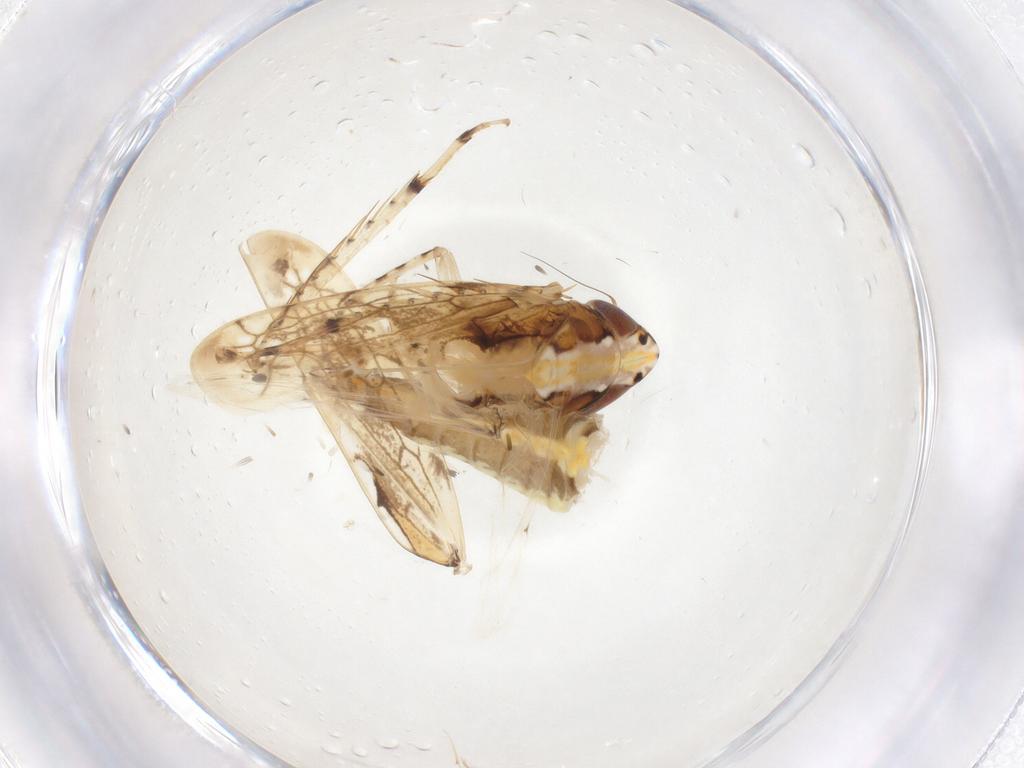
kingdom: Animalia
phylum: Arthropoda
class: Insecta
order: Hemiptera
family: Cicadellidae
